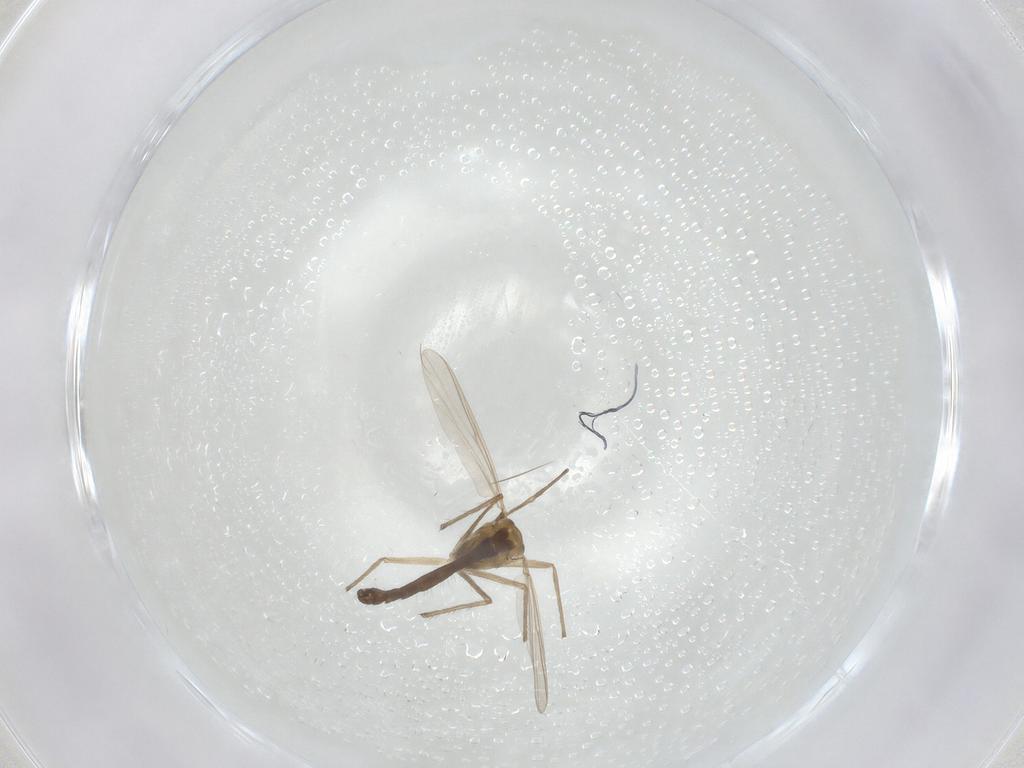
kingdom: Animalia
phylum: Arthropoda
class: Insecta
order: Diptera
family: Chironomidae
